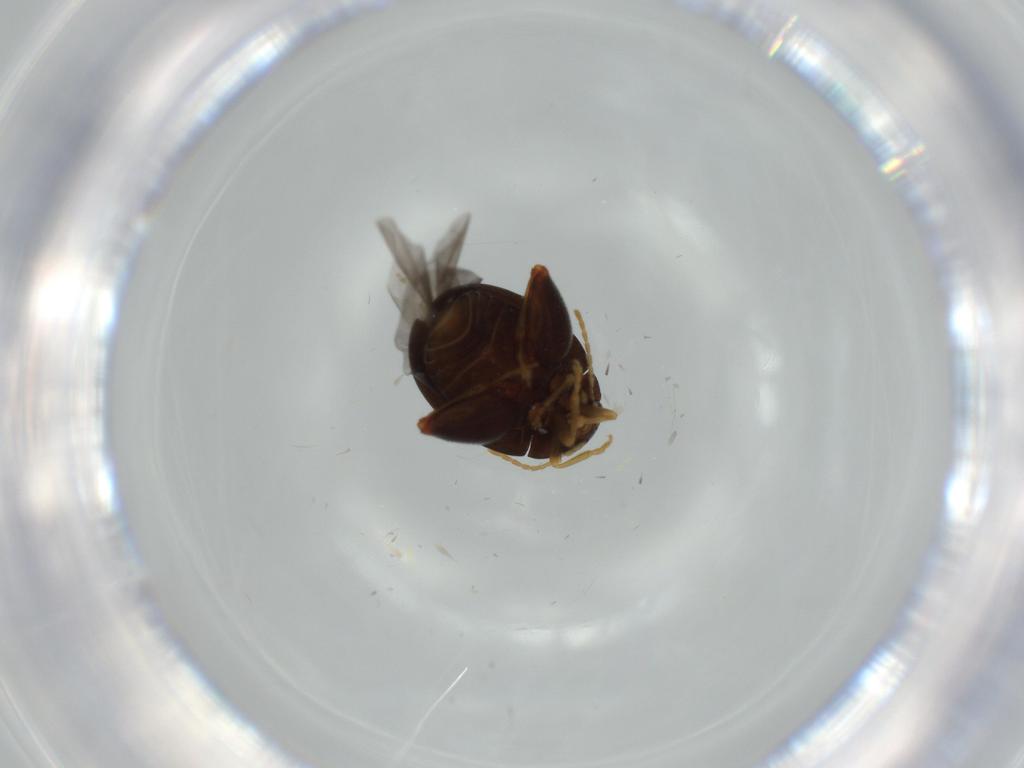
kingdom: Animalia
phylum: Arthropoda
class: Insecta
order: Coleoptera
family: Chrysomelidae
